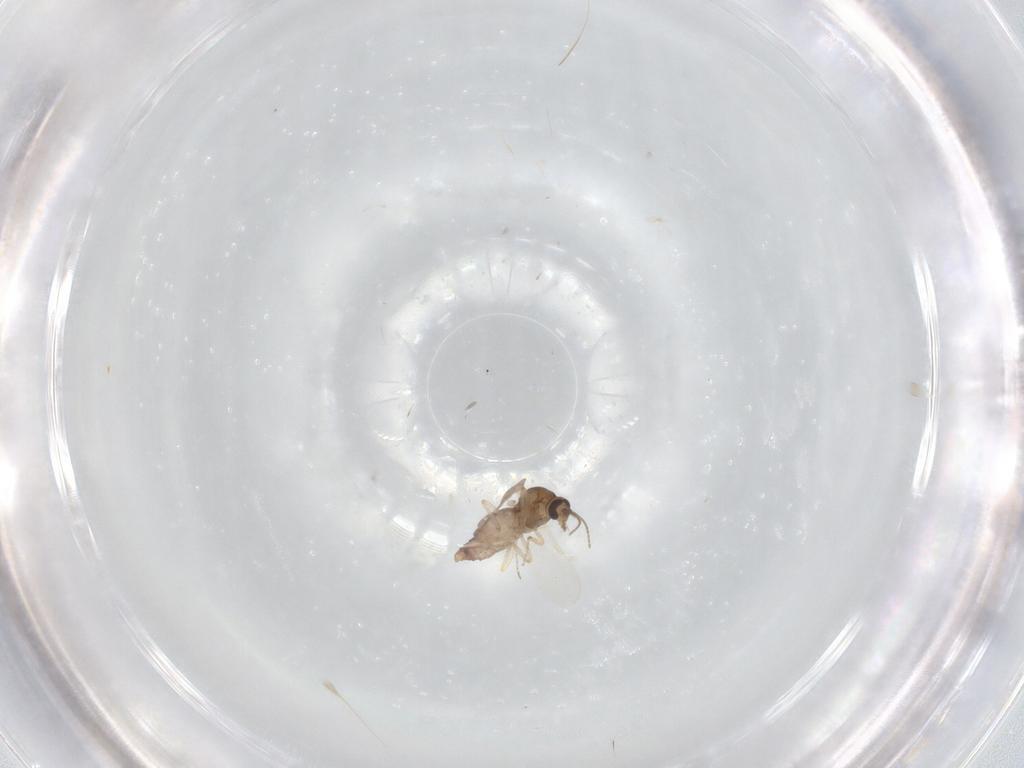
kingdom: Animalia
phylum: Arthropoda
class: Insecta
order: Diptera
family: Ceratopogonidae
